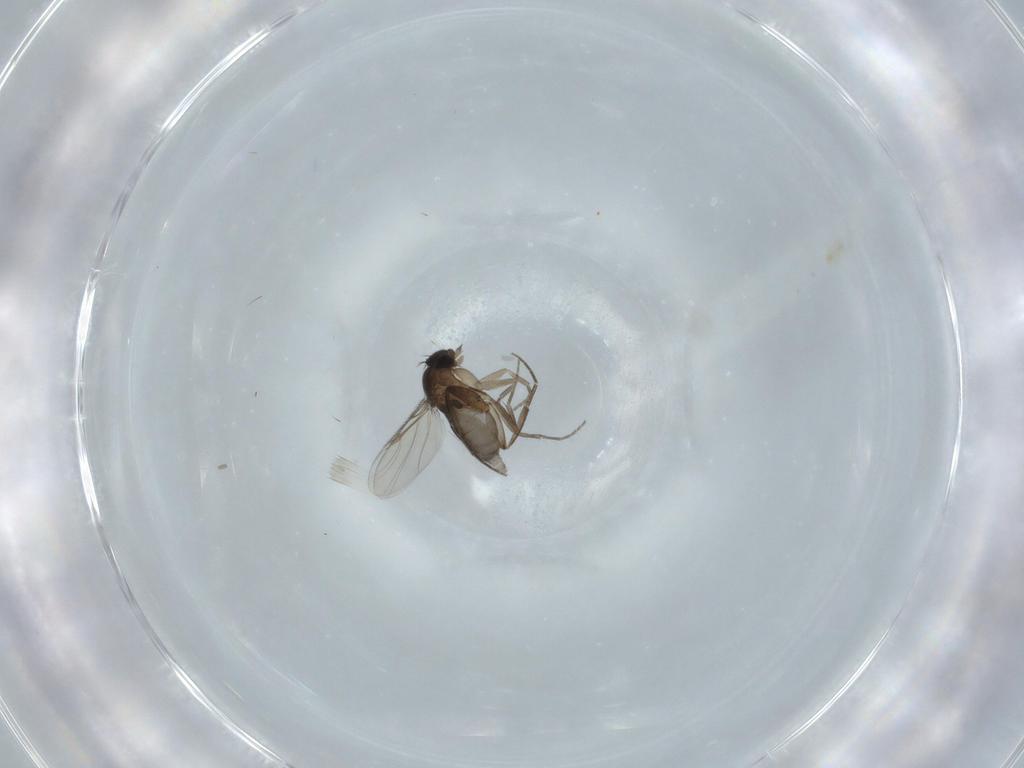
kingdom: Animalia
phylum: Arthropoda
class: Insecta
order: Diptera
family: Phoridae
